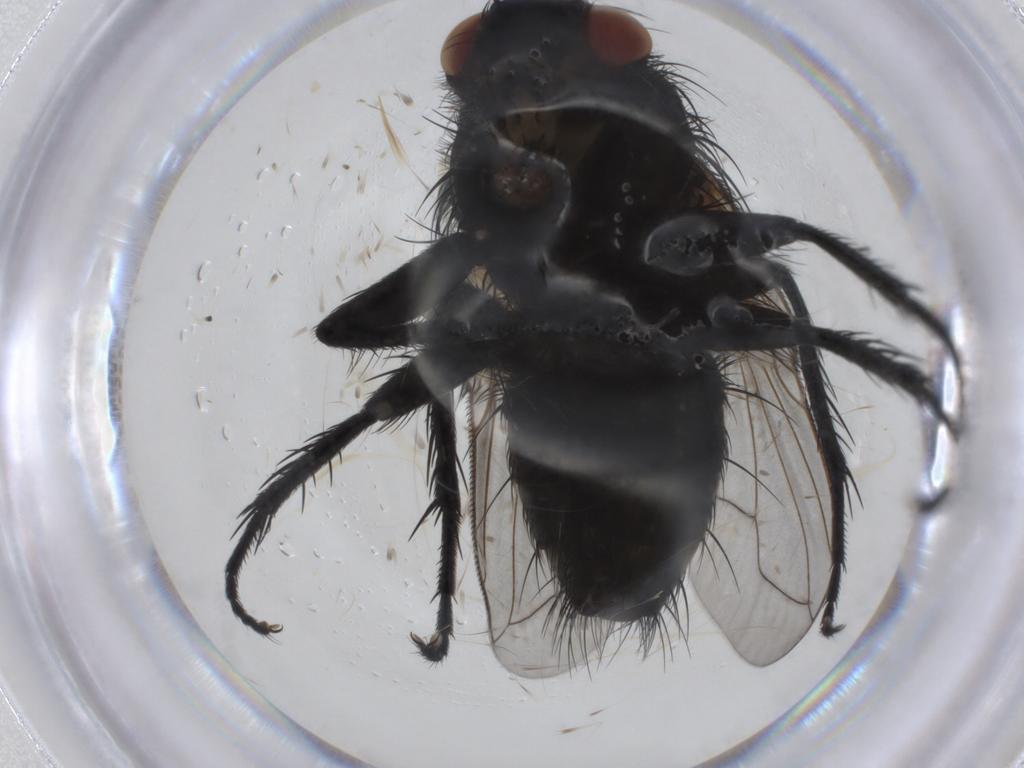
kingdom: Animalia
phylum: Arthropoda
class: Insecta
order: Diptera
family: Tachinidae
